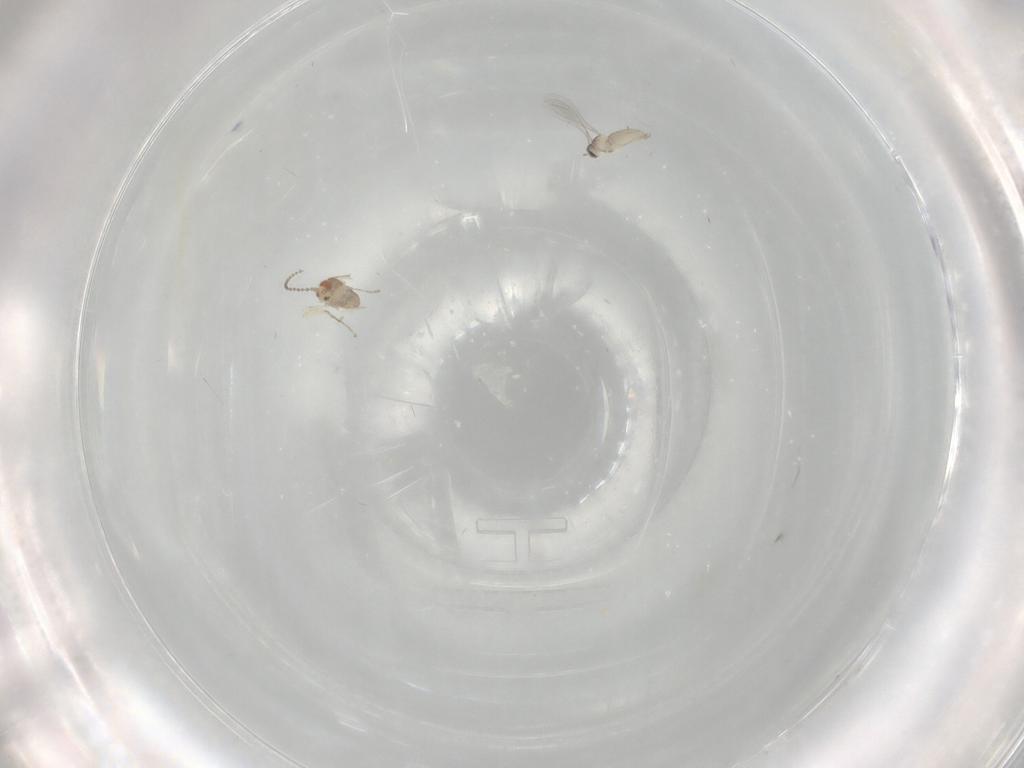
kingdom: Animalia
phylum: Arthropoda
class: Insecta
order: Diptera
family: Cecidomyiidae
